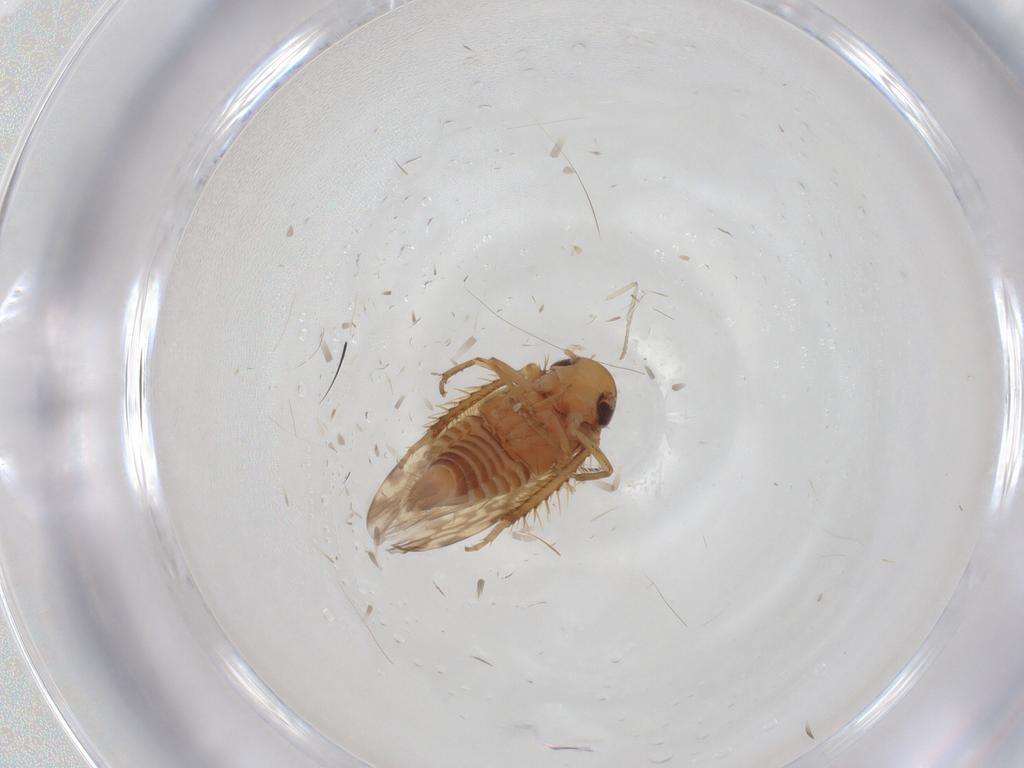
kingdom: Animalia
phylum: Arthropoda
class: Insecta
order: Hemiptera
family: Cicadellidae
